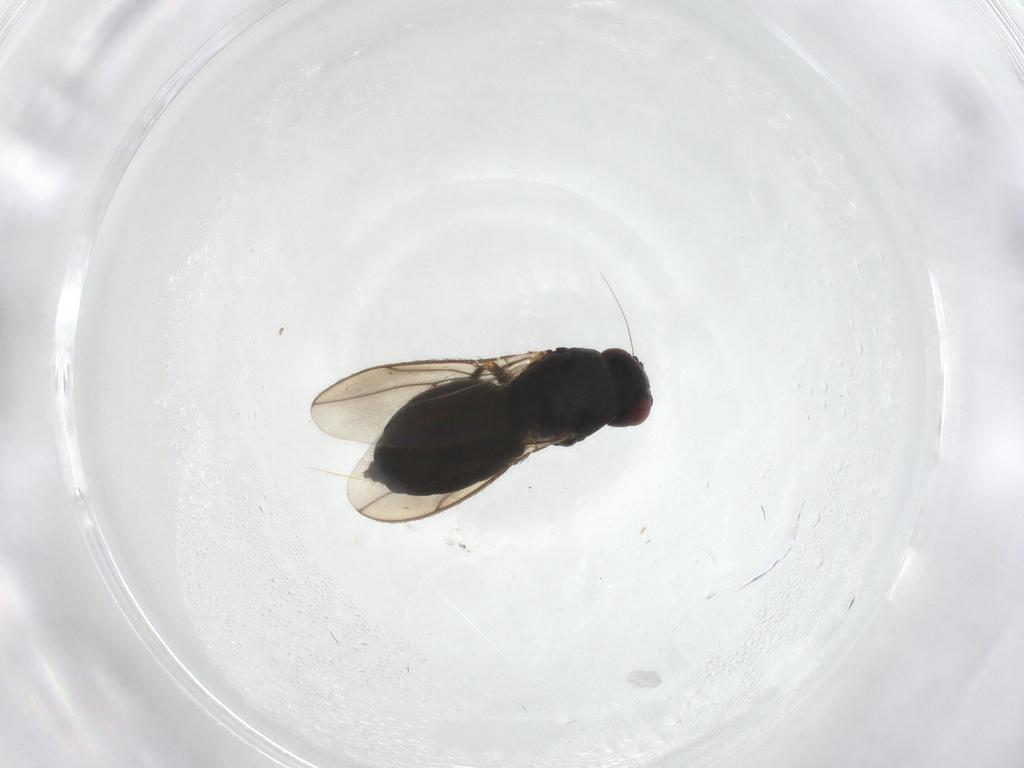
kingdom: Animalia
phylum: Arthropoda
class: Insecta
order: Diptera
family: Sphaeroceridae
